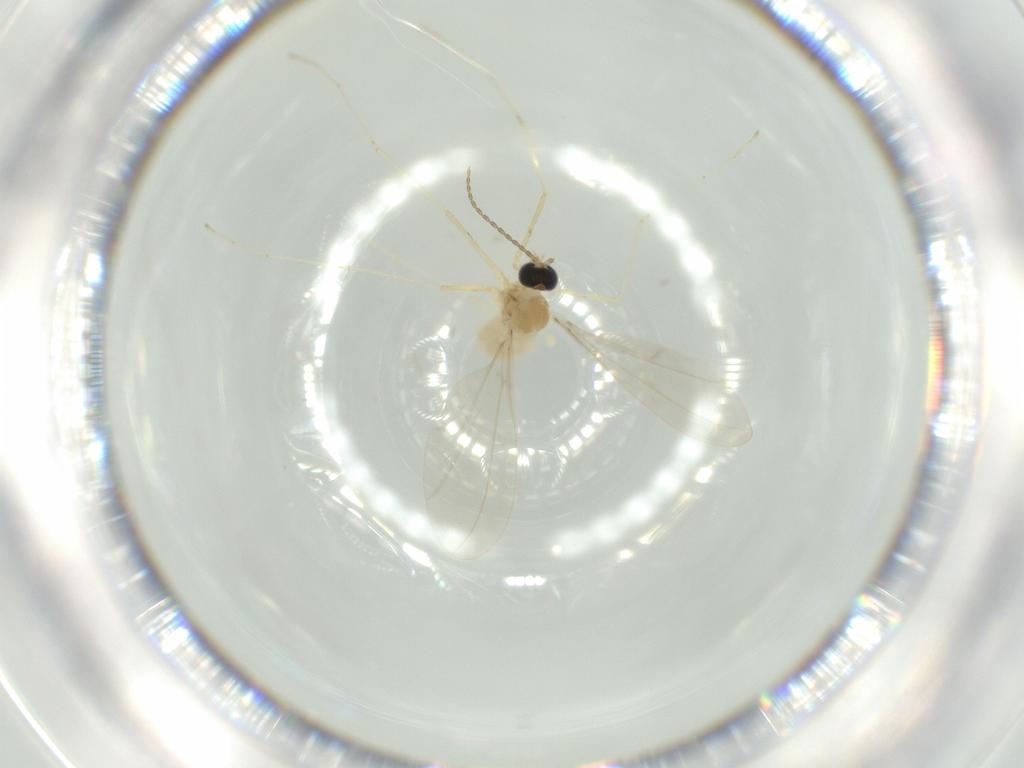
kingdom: Animalia
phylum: Arthropoda
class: Insecta
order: Diptera
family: Cecidomyiidae
